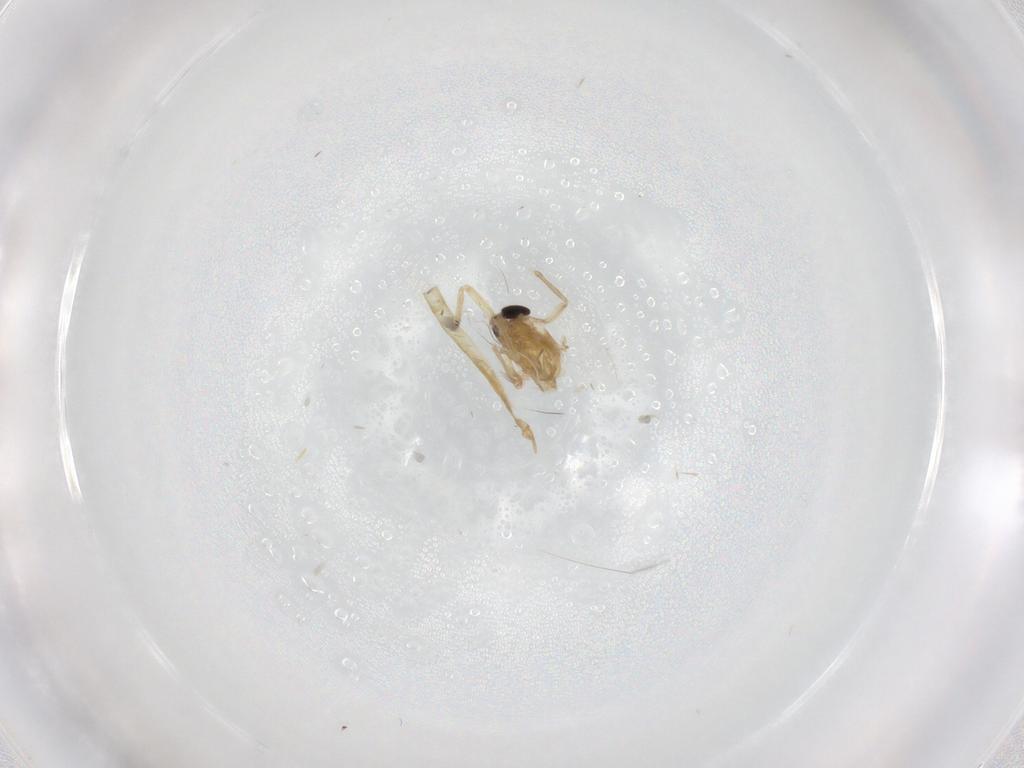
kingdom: Animalia
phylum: Arthropoda
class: Insecta
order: Diptera
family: Chironomidae
